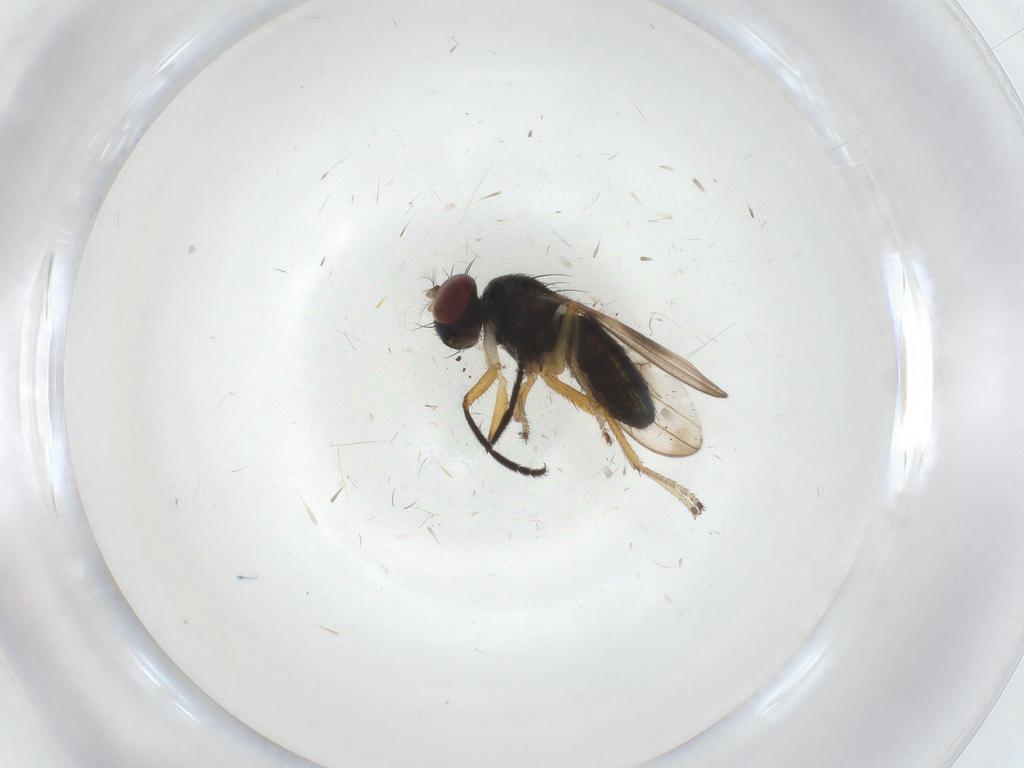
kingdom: Animalia
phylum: Arthropoda
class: Insecta
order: Diptera
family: Ephydridae
